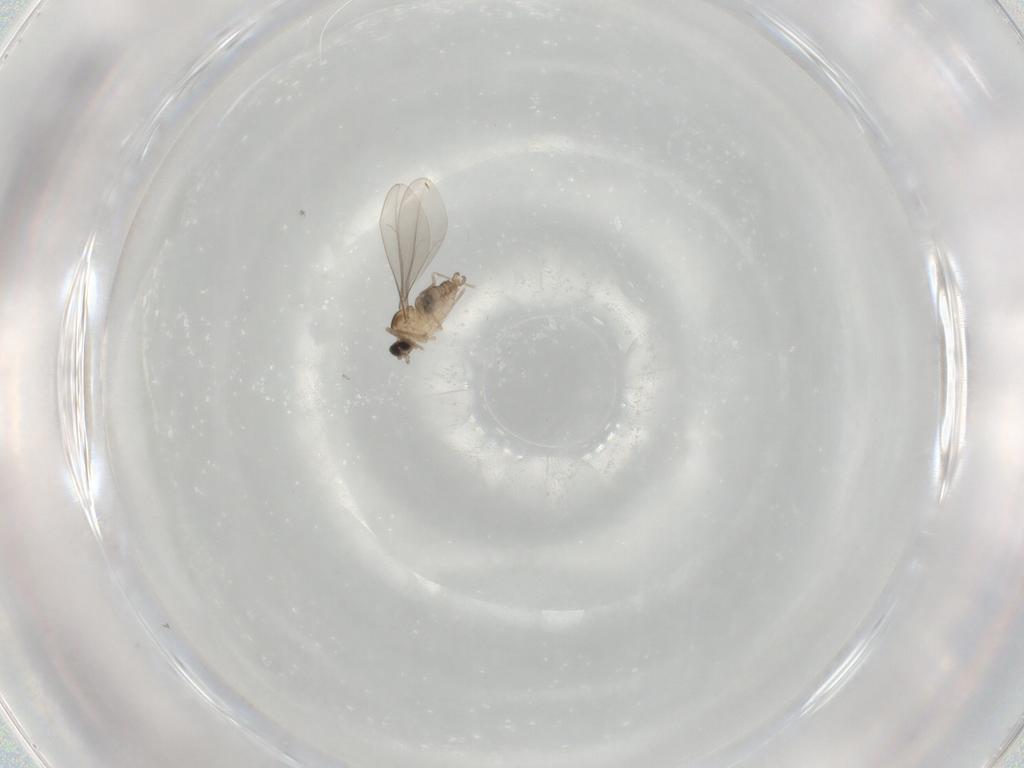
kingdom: Animalia
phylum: Arthropoda
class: Insecta
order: Diptera
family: Cecidomyiidae
